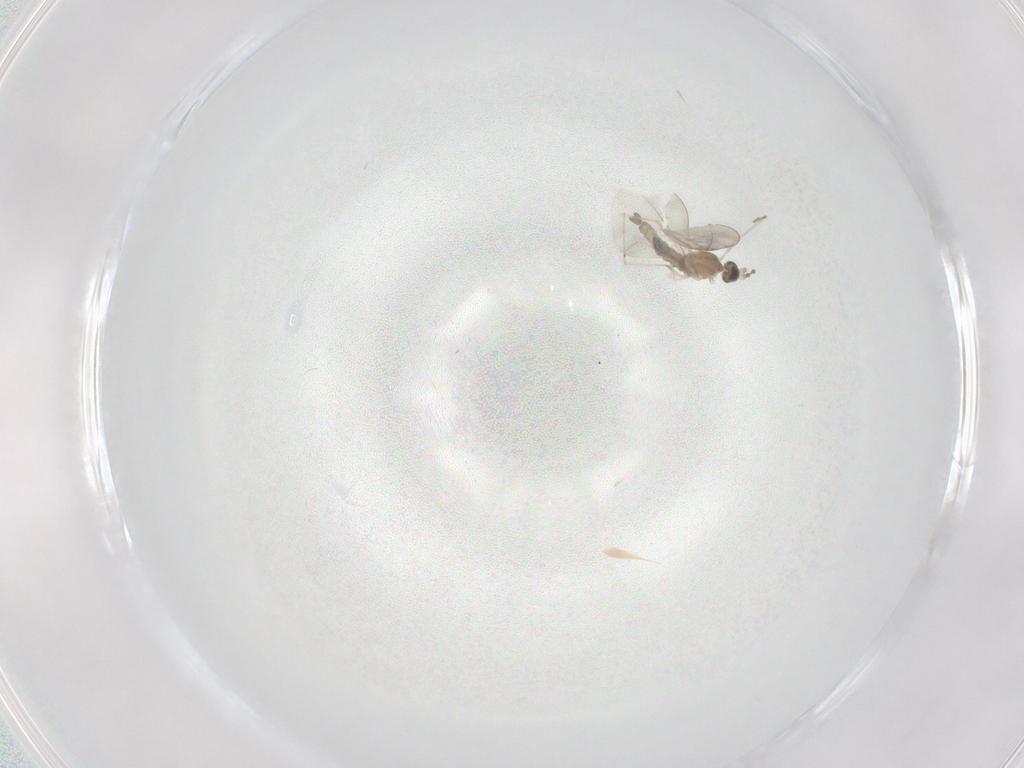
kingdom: Animalia
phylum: Arthropoda
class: Insecta
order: Diptera
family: Cecidomyiidae
